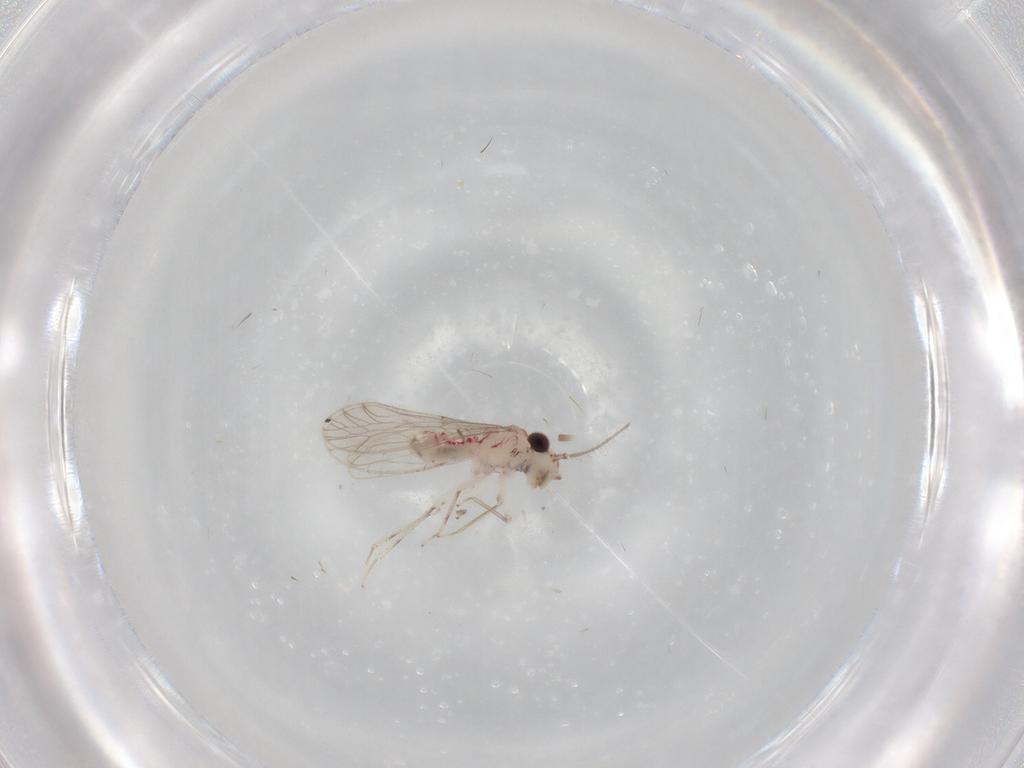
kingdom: Animalia
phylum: Arthropoda
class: Insecta
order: Psocodea
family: Caeciliusidae
